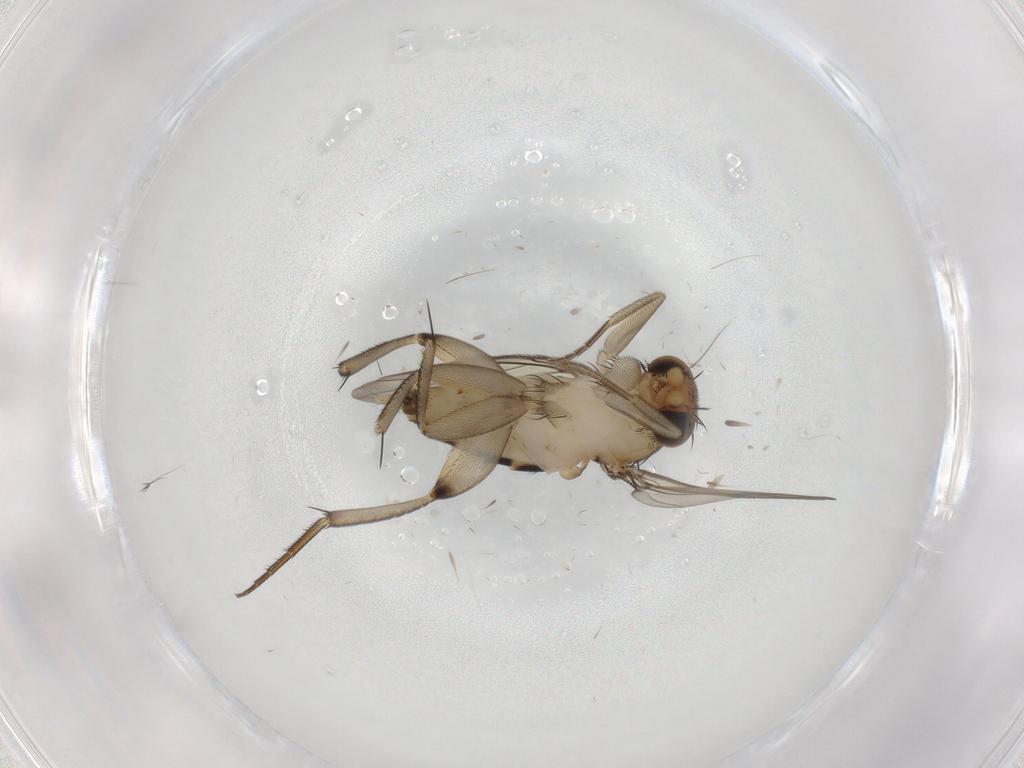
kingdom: Animalia
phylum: Arthropoda
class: Insecta
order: Diptera
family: Phoridae
